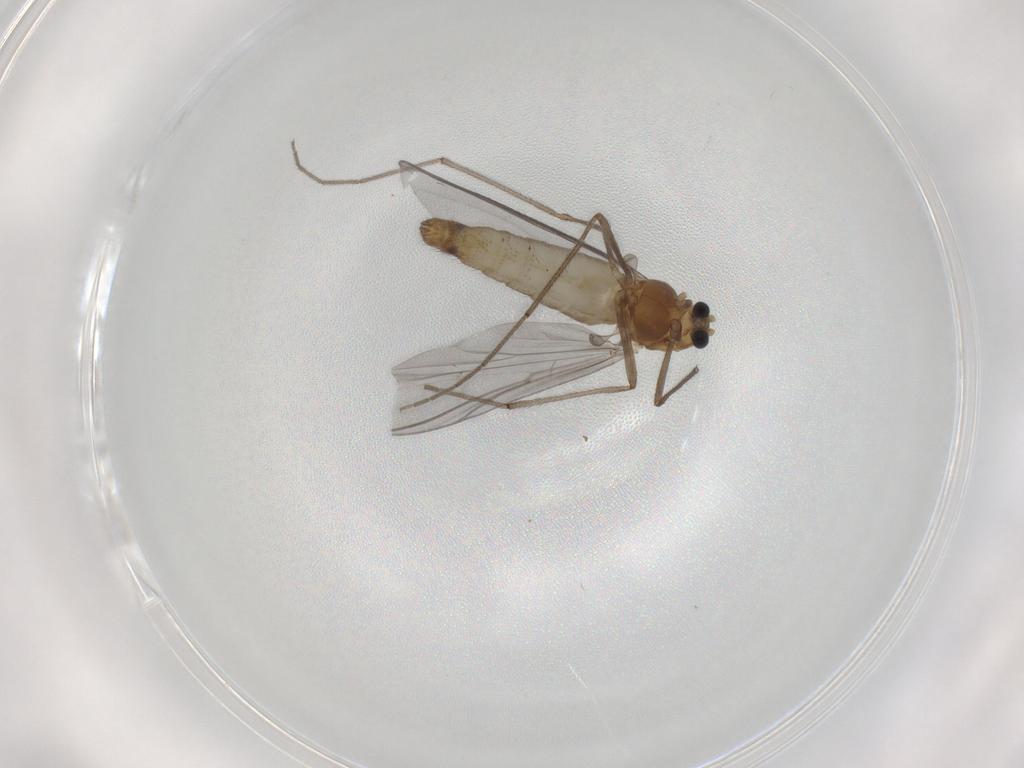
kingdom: Animalia
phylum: Arthropoda
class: Insecta
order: Diptera
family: Chironomidae
